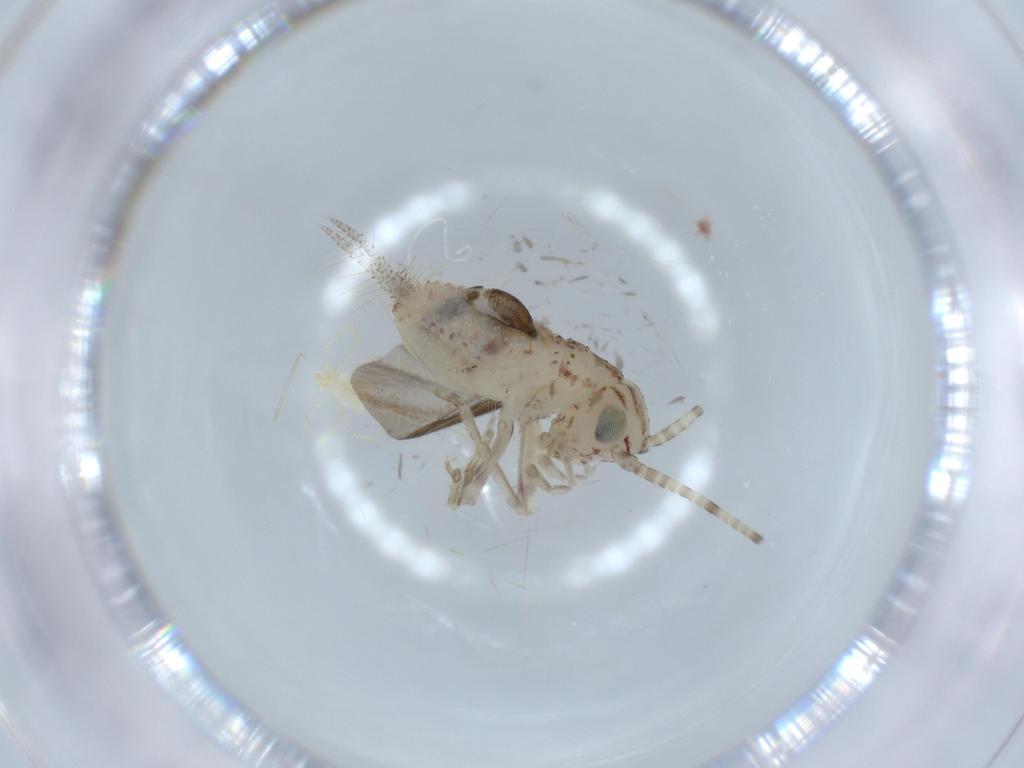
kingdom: Animalia
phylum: Arthropoda
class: Insecta
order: Orthoptera
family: Trigonidiidae
